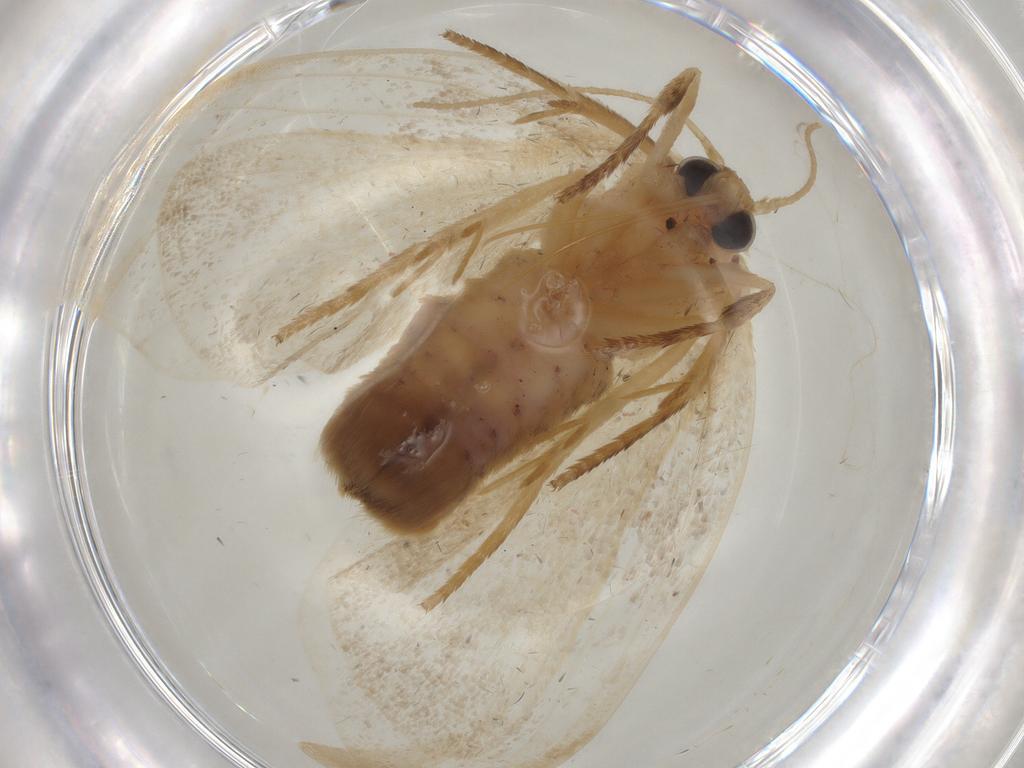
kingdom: Animalia
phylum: Arthropoda
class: Insecta
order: Lepidoptera
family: Erebidae
